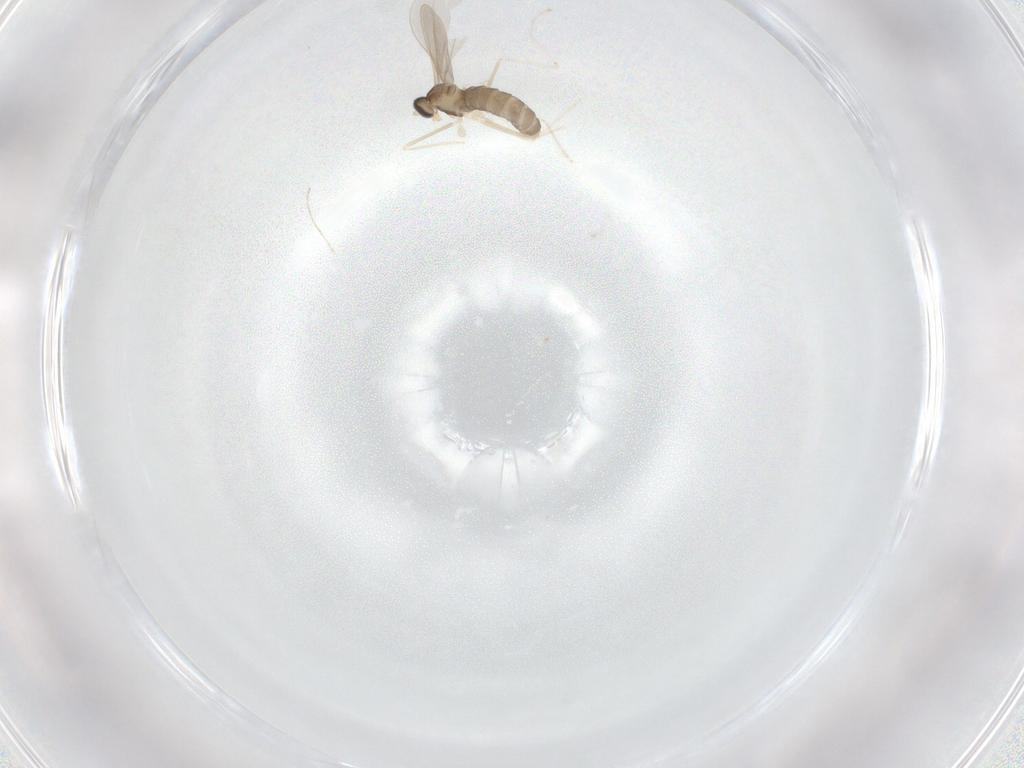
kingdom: Animalia
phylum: Arthropoda
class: Insecta
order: Diptera
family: Cecidomyiidae
